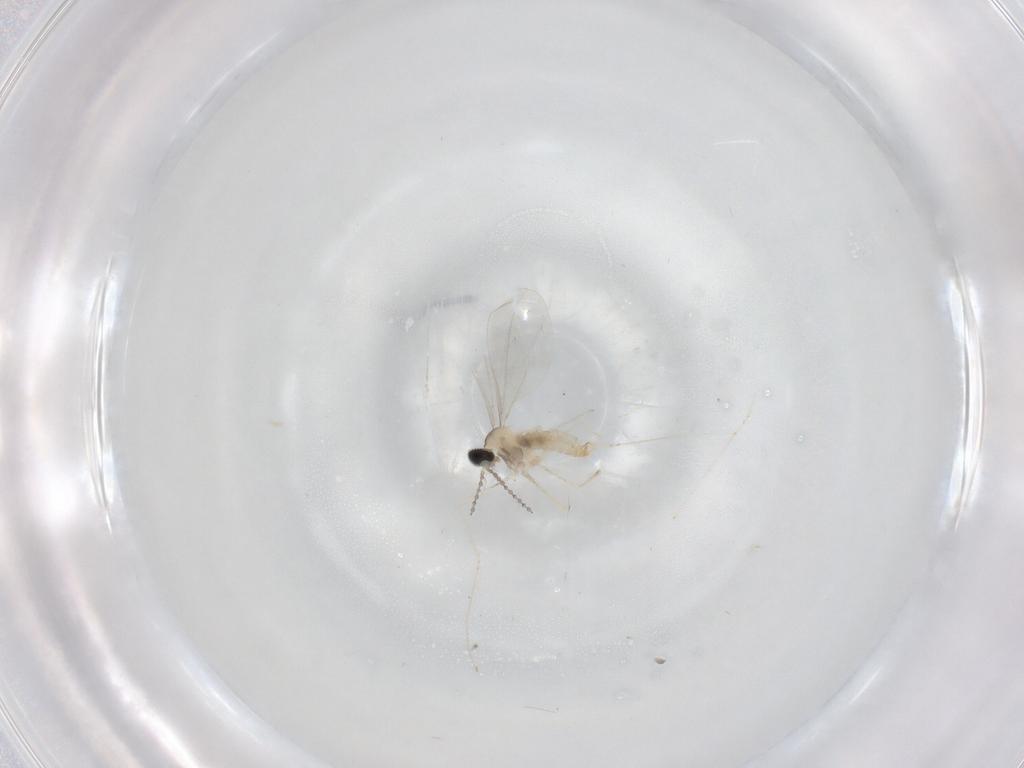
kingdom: Animalia
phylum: Arthropoda
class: Insecta
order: Diptera
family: Cecidomyiidae
